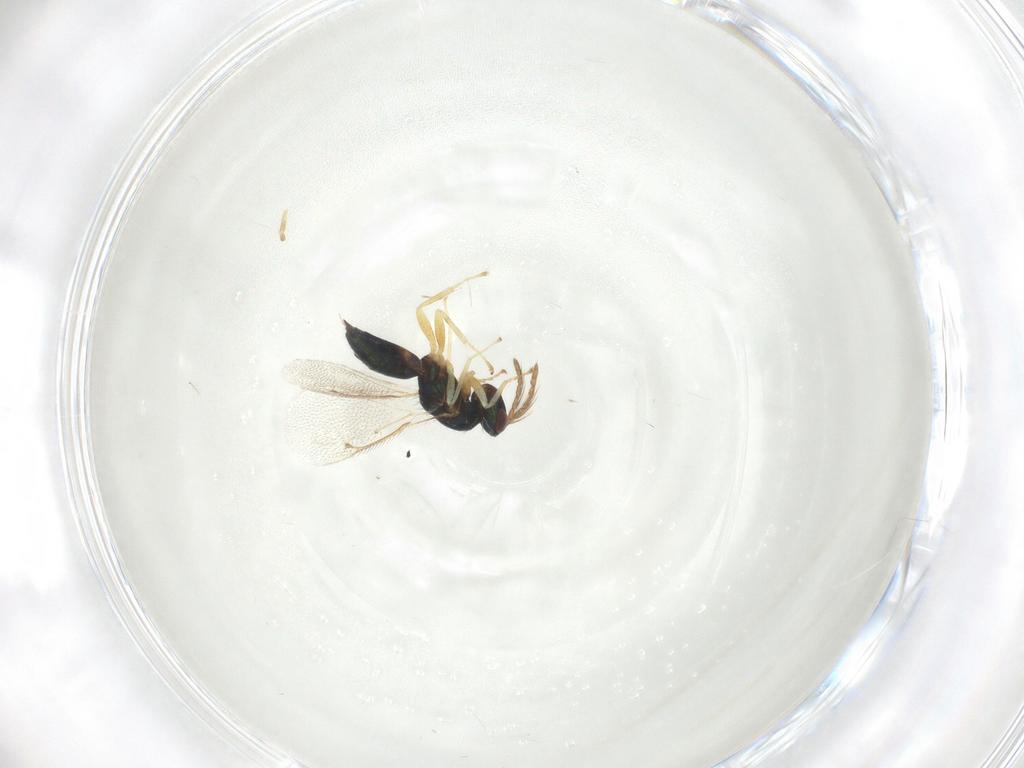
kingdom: Animalia
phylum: Arthropoda
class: Insecta
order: Hymenoptera
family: Eulophidae
